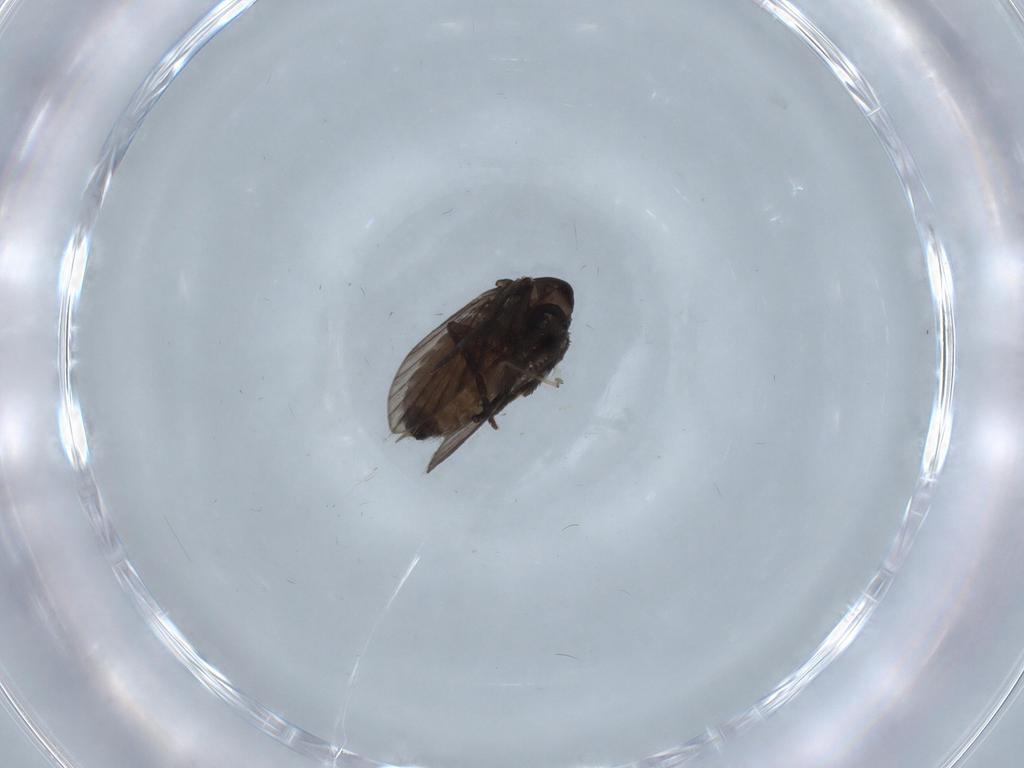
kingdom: Animalia
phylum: Arthropoda
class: Insecta
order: Diptera
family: Psychodidae
